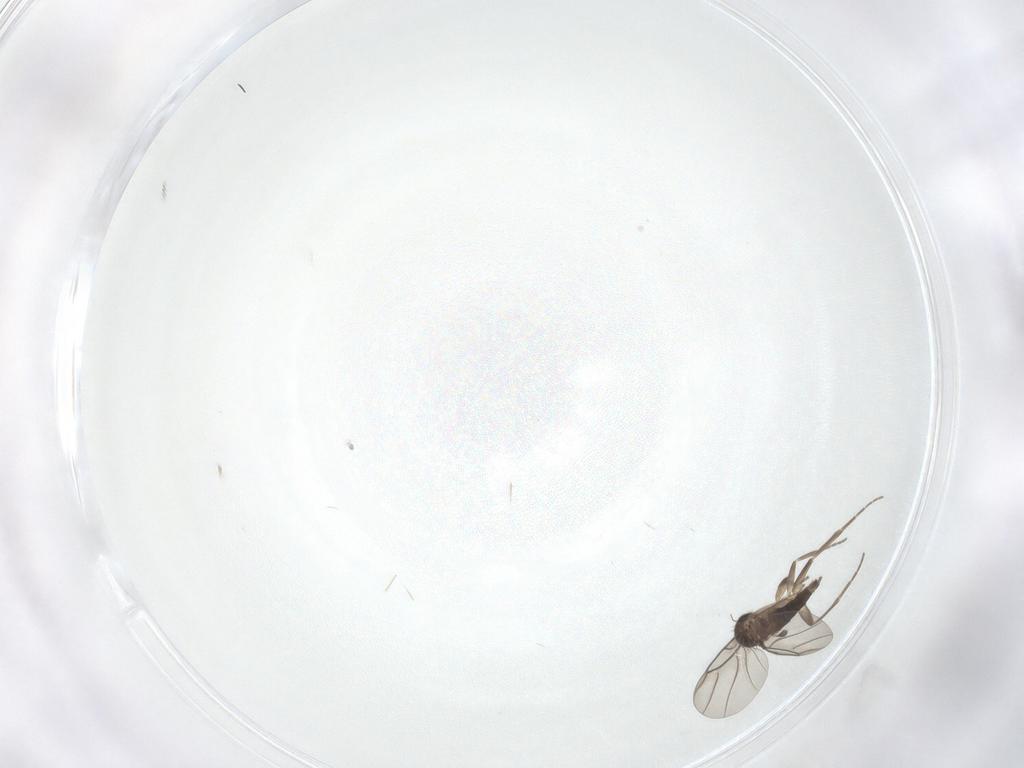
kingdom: Animalia
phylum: Arthropoda
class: Insecta
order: Diptera
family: Phoridae
